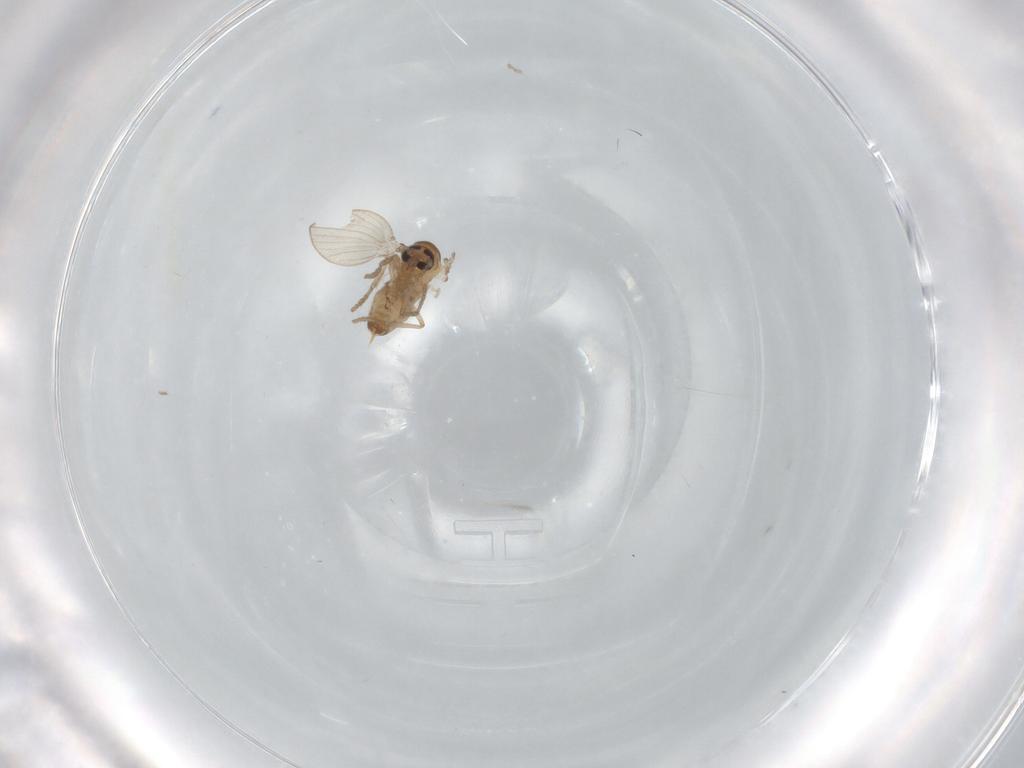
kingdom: Animalia
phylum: Arthropoda
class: Insecta
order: Diptera
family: Psychodidae
